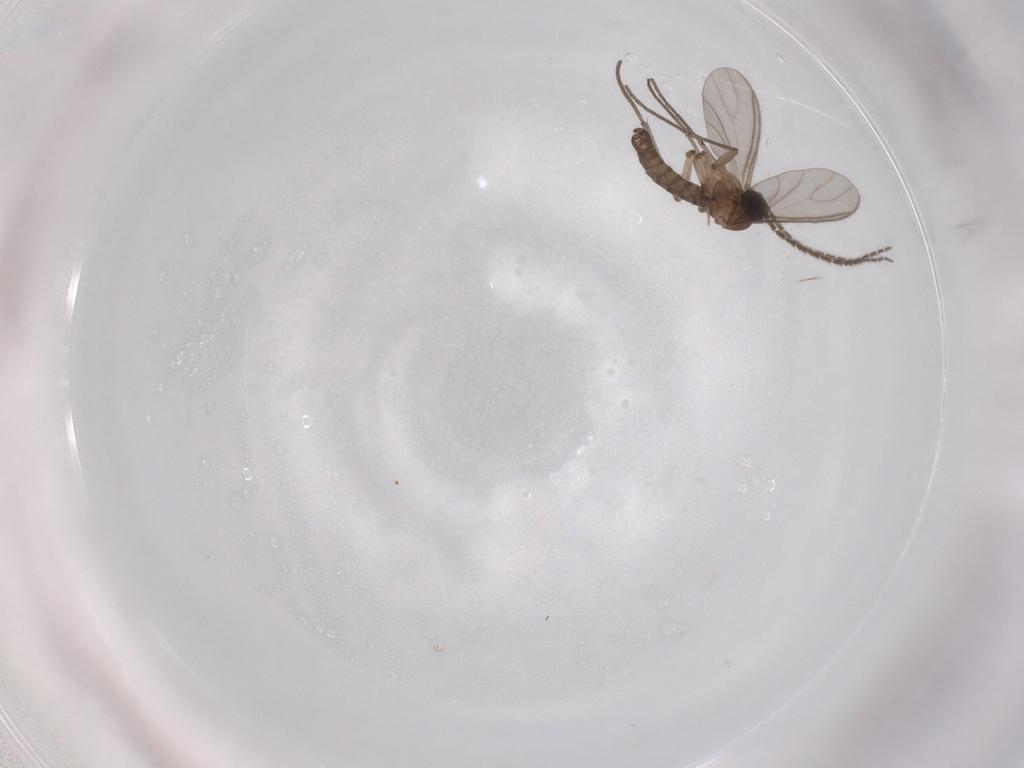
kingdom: Animalia
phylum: Arthropoda
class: Insecta
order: Diptera
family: Sciaridae
